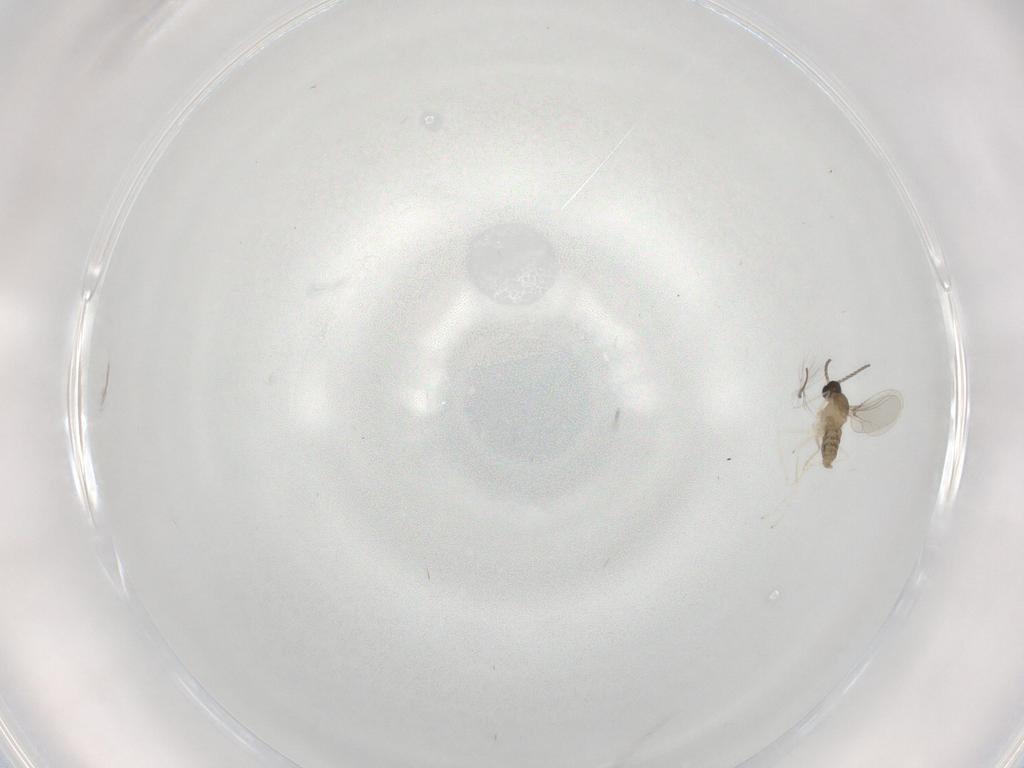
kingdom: Animalia
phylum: Arthropoda
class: Insecta
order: Diptera
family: Chironomidae
